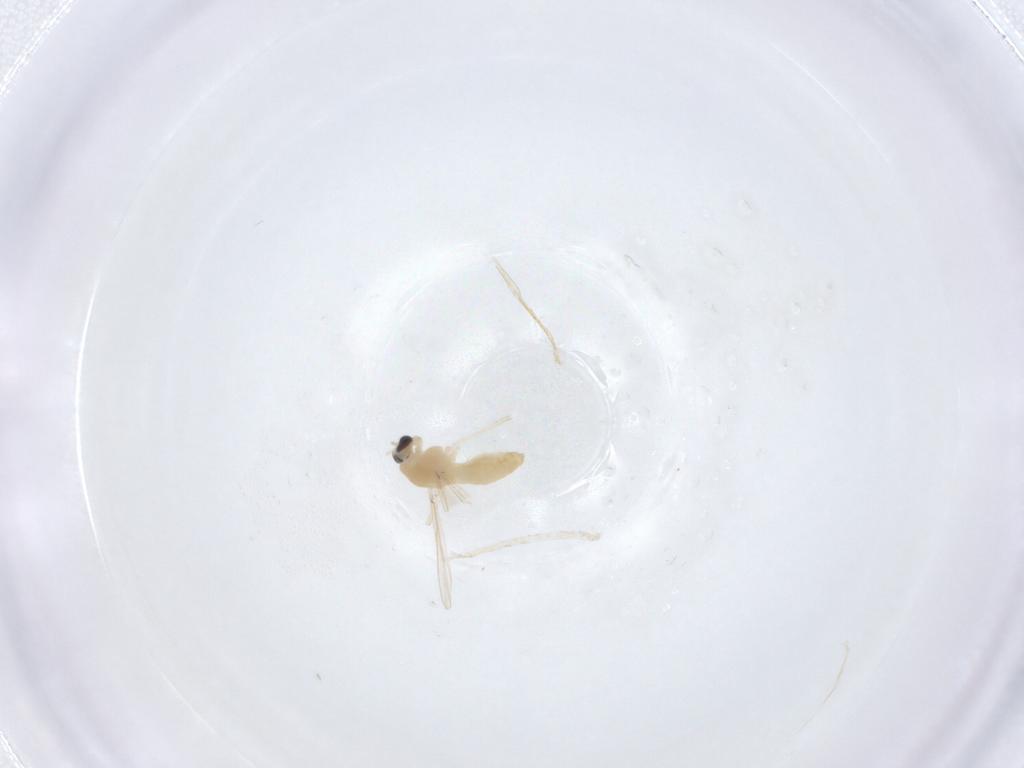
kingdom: Animalia
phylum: Arthropoda
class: Insecta
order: Diptera
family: Chironomidae
